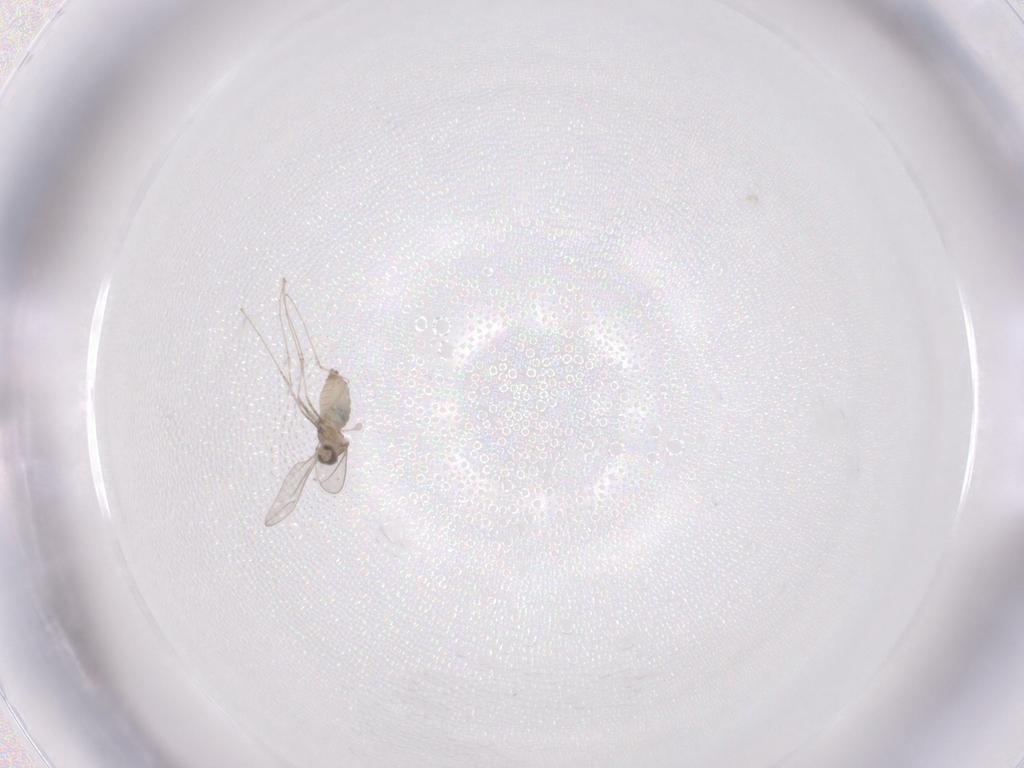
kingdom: Animalia
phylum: Arthropoda
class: Insecta
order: Diptera
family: Cecidomyiidae
